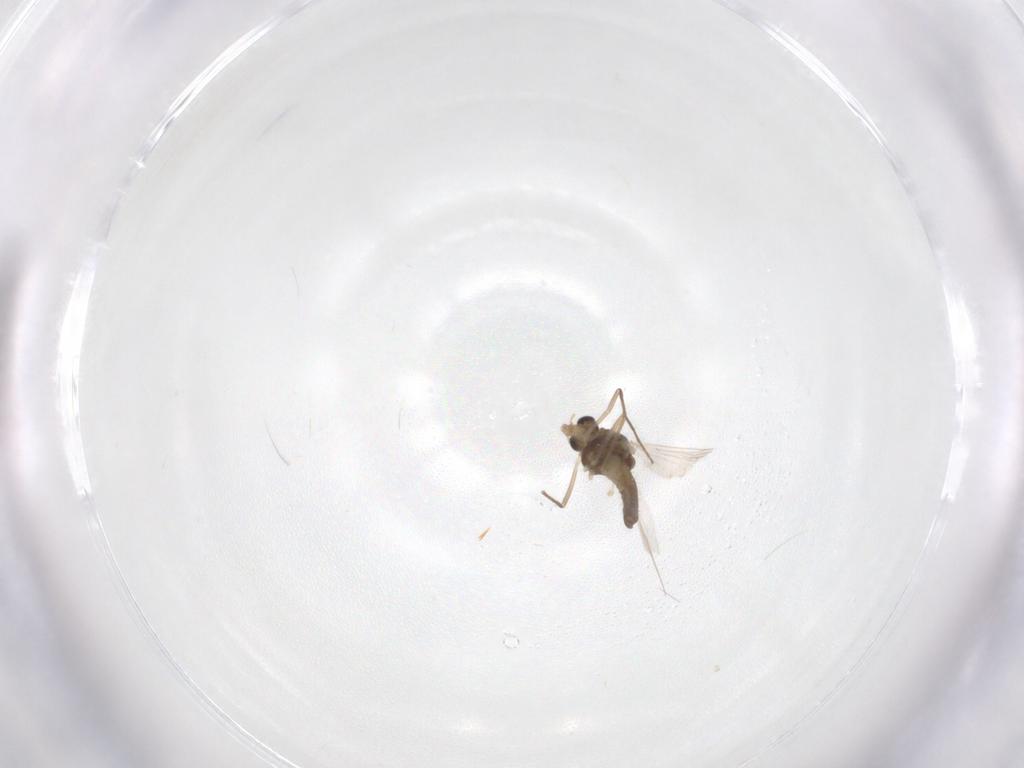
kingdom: Animalia
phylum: Arthropoda
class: Insecta
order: Diptera
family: Chironomidae
